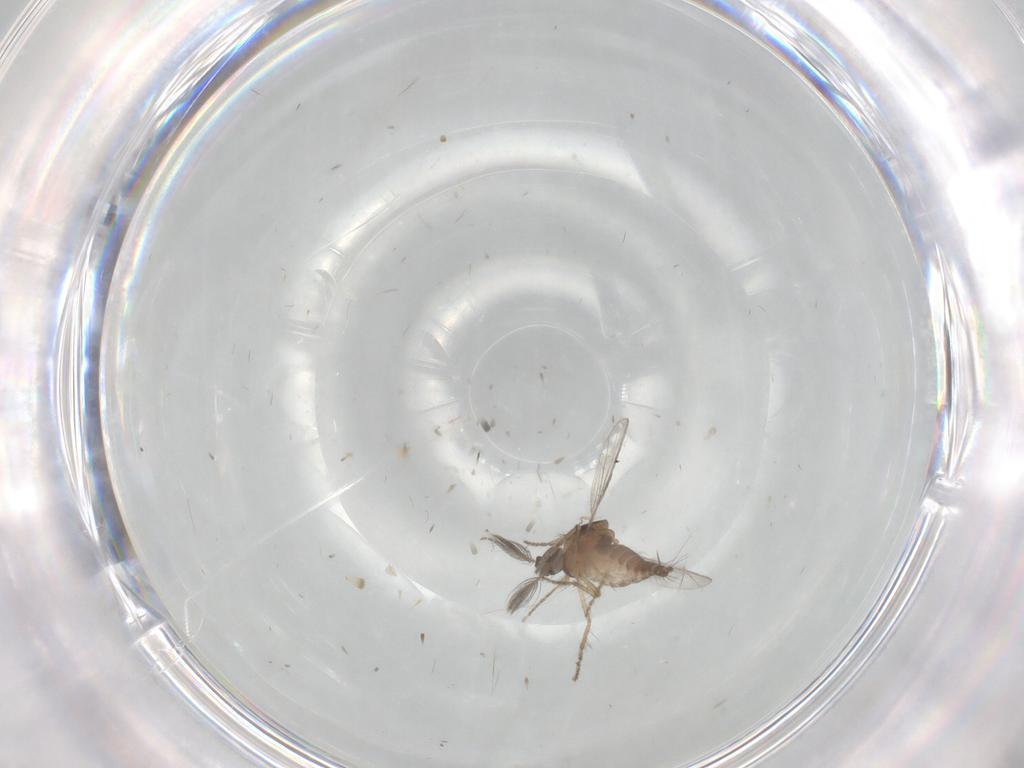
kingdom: Animalia
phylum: Arthropoda
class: Insecta
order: Diptera
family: Ceratopogonidae
